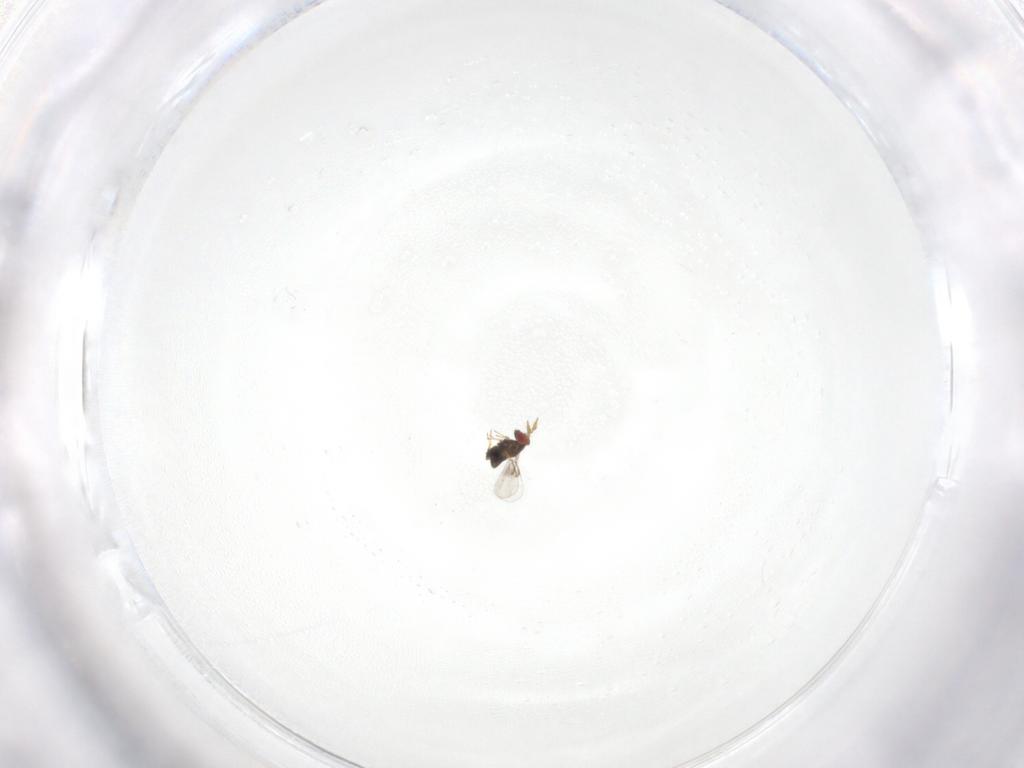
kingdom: Animalia
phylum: Arthropoda
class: Insecta
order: Hymenoptera
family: Trichogrammatidae
